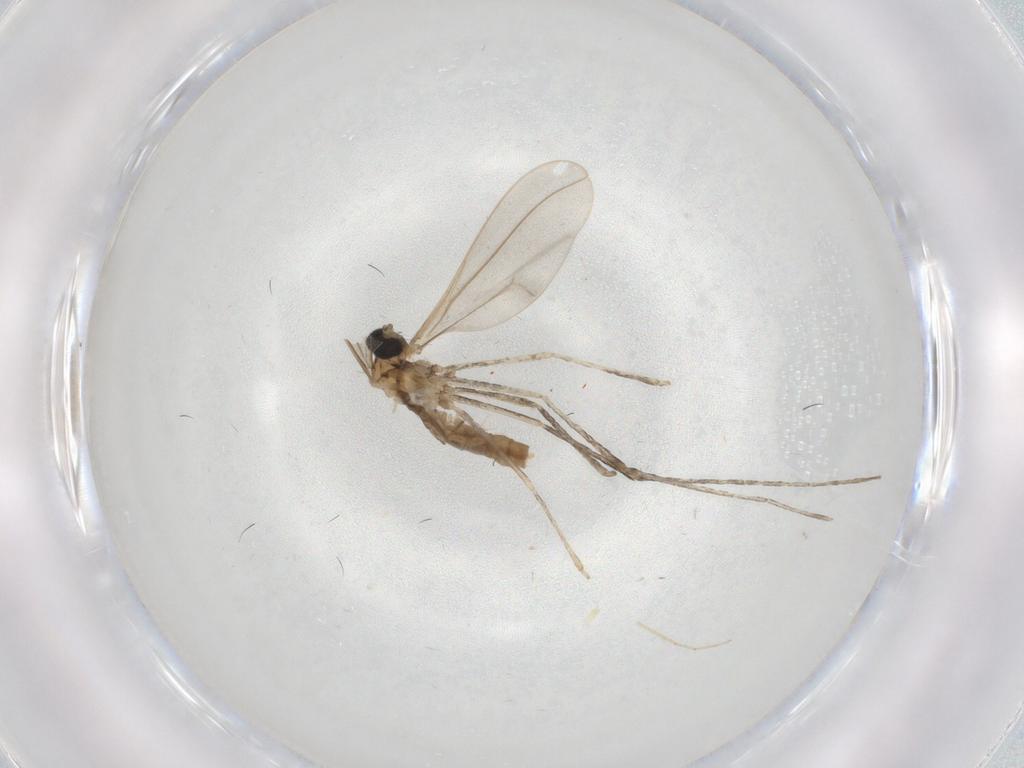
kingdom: Animalia
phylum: Arthropoda
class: Insecta
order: Diptera
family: Cecidomyiidae
